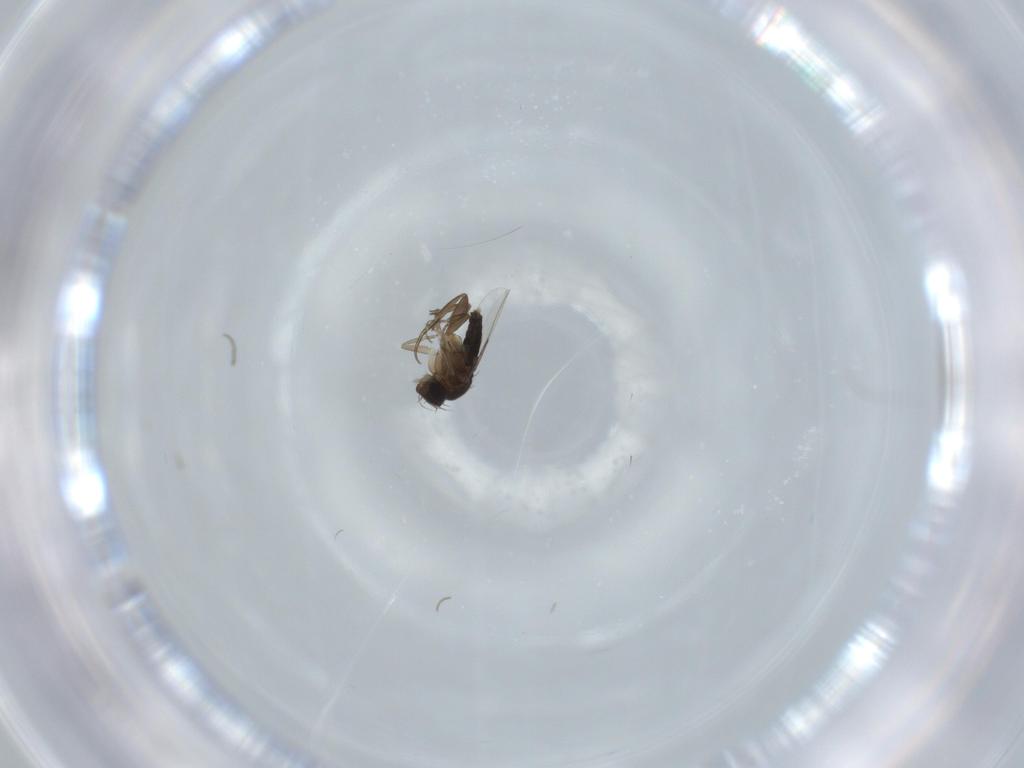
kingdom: Animalia
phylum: Arthropoda
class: Insecta
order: Diptera
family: Phoridae
